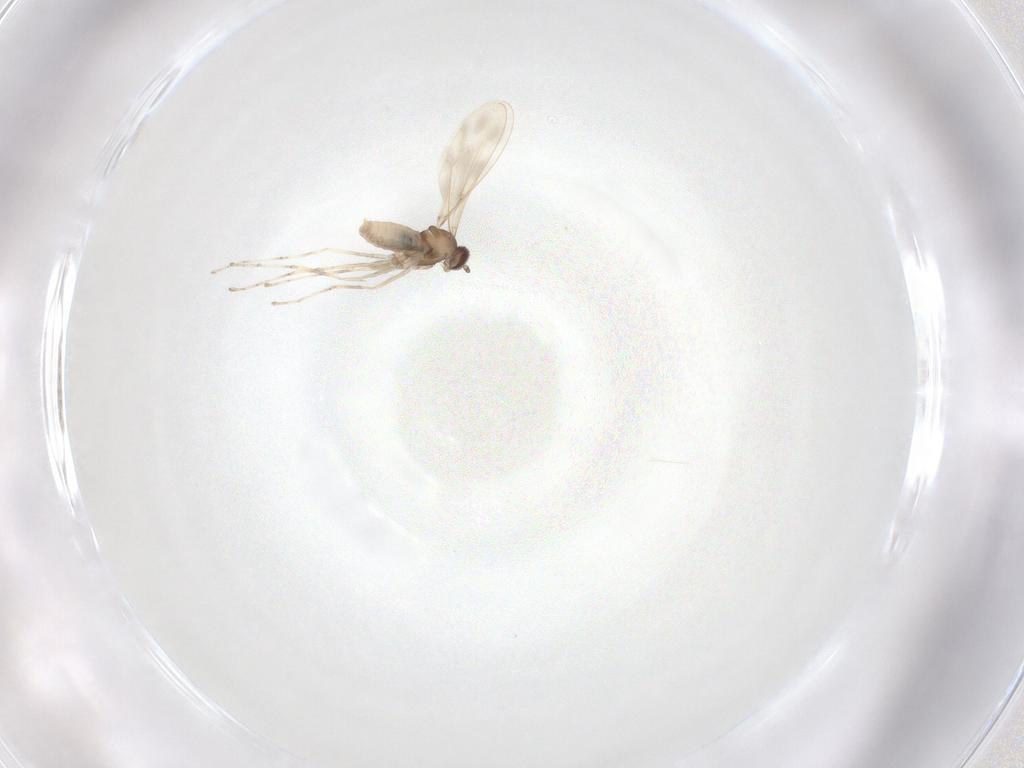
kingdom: Animalia
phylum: Arthropoda
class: Insecta
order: Diptera
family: Cecidomyiidae
